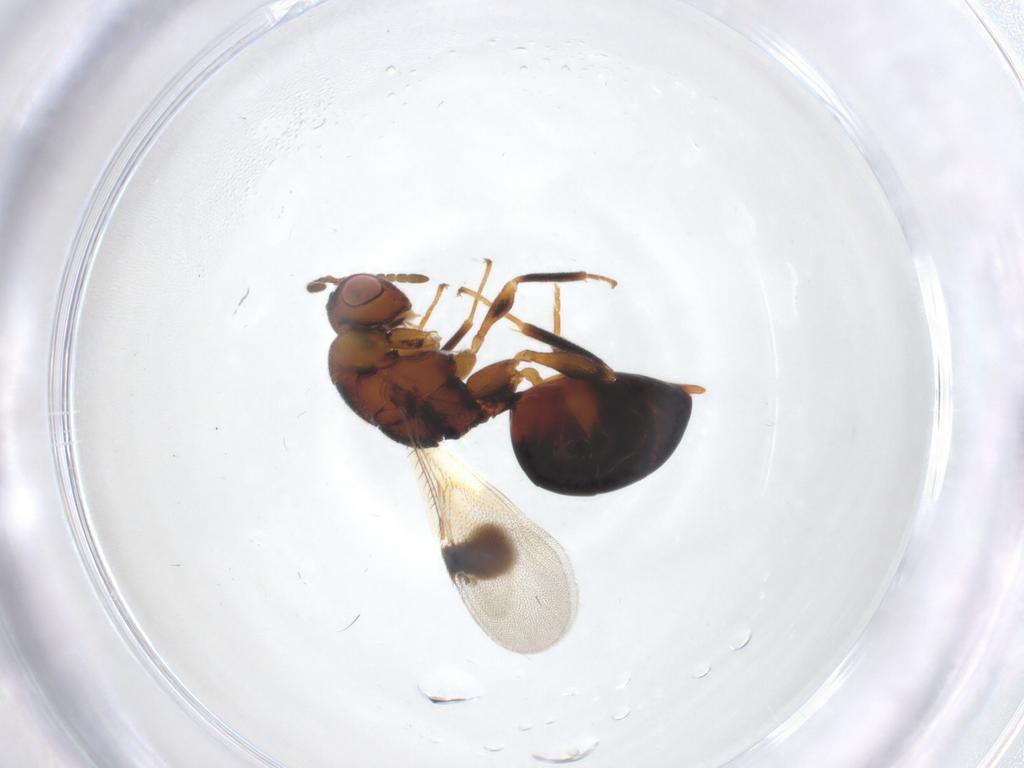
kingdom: Animalia
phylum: Arthropoda
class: Insecta
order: Hymenoptera
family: Eurytomidae
